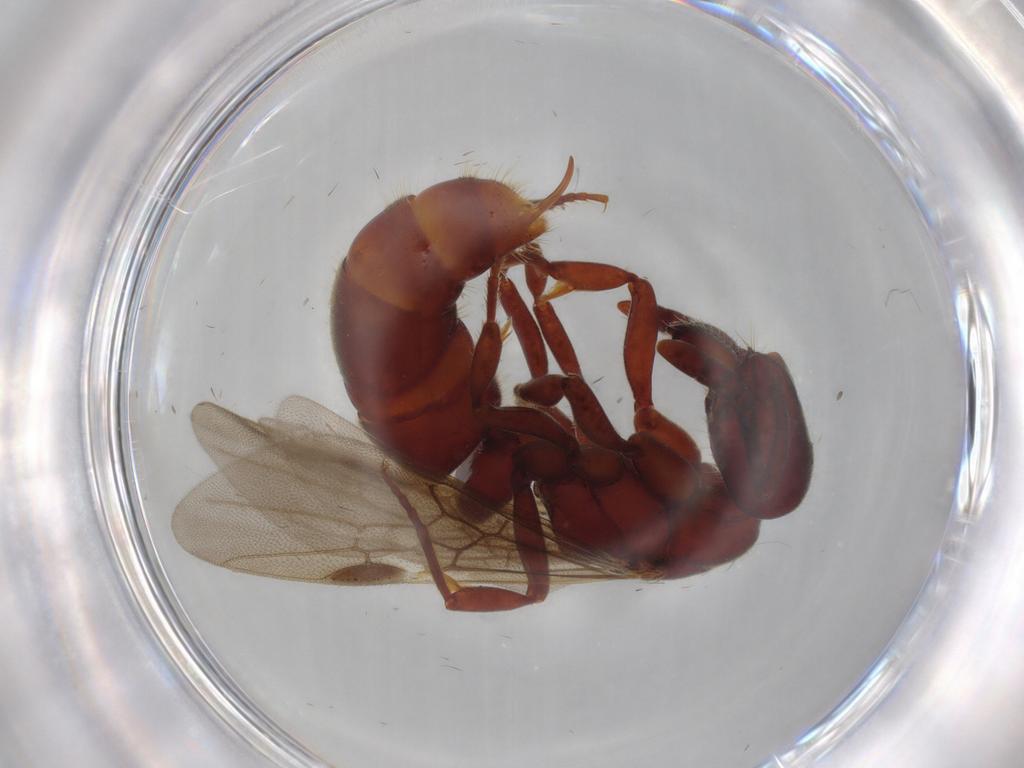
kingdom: Animalia
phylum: Arthropoda
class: Insecta
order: Hymenoptera
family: Formicidae
